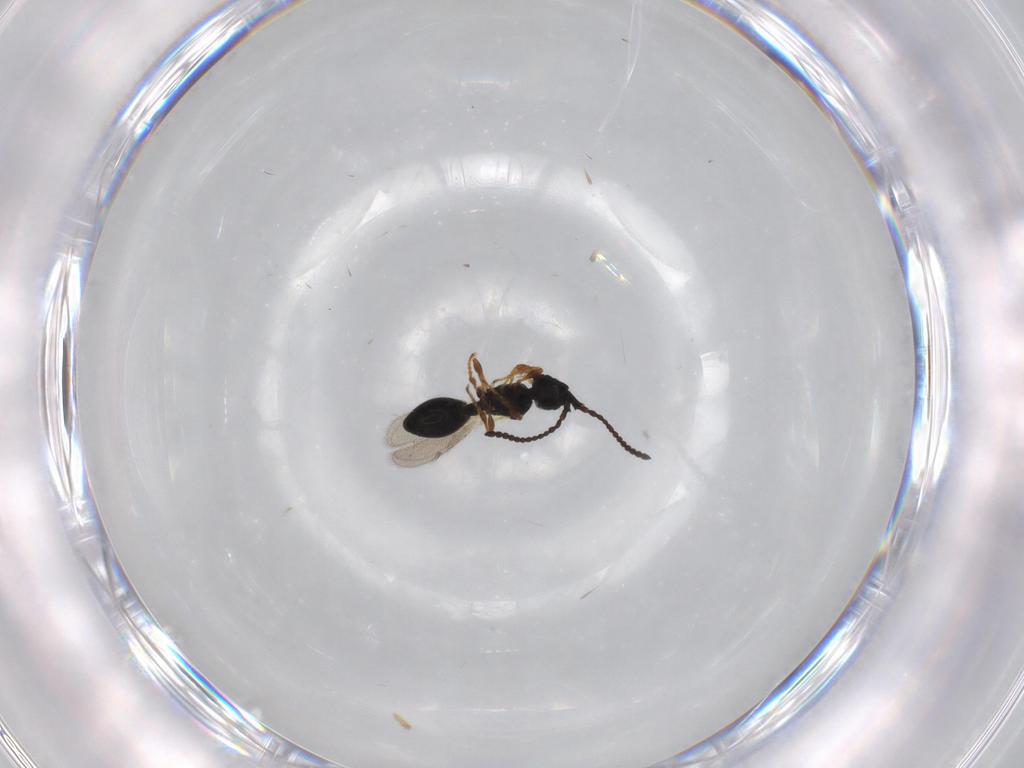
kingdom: Animalia
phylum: Arthropoda
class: Insecta
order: Hymenoptera
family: Diapriidae
